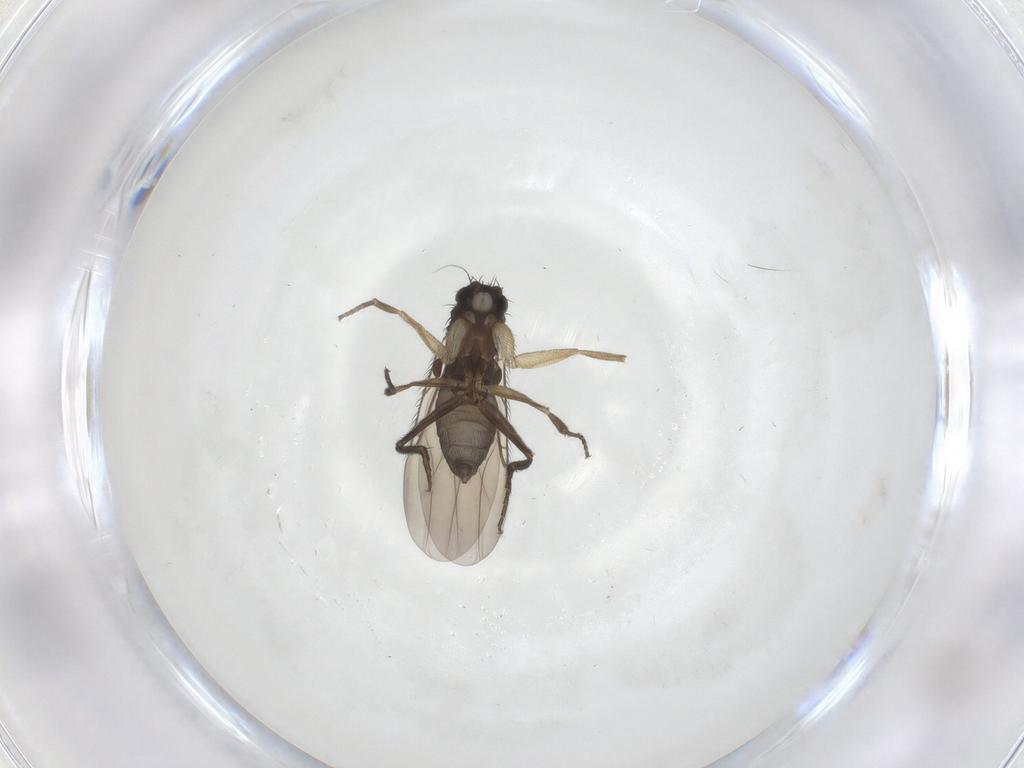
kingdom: Animalia
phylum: Arthropoda
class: Insecta
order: Diptera
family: Phoridae
